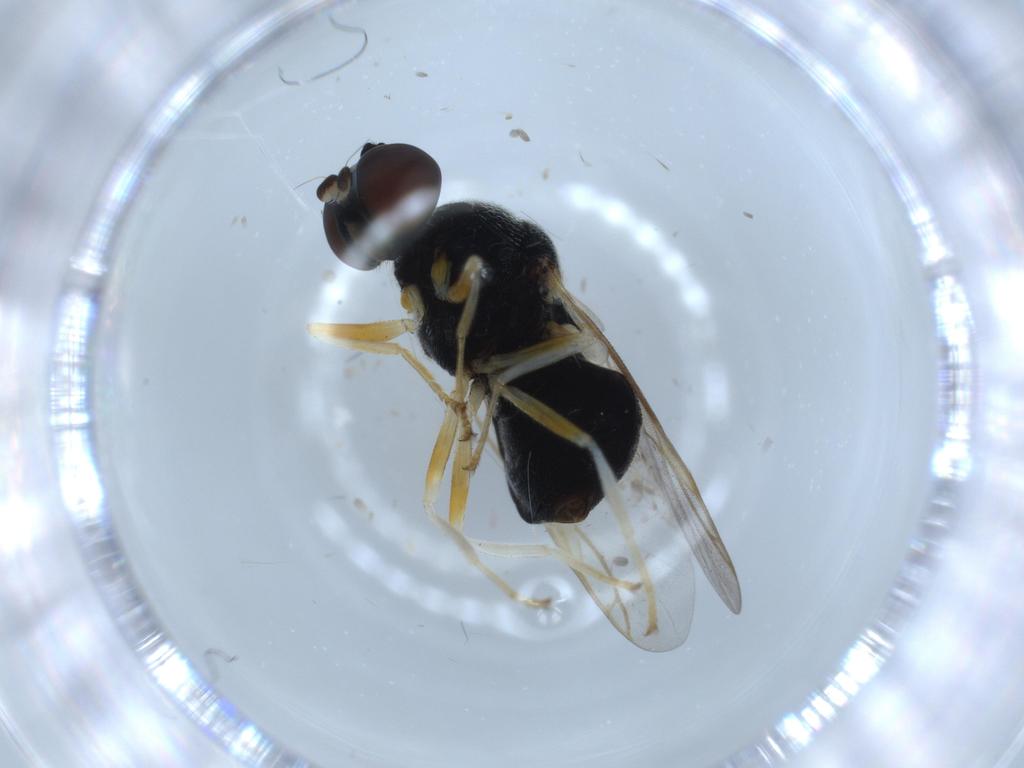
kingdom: Animalia
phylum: Arthropoda
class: Insecta
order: Diptera
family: Stratiomyidae
